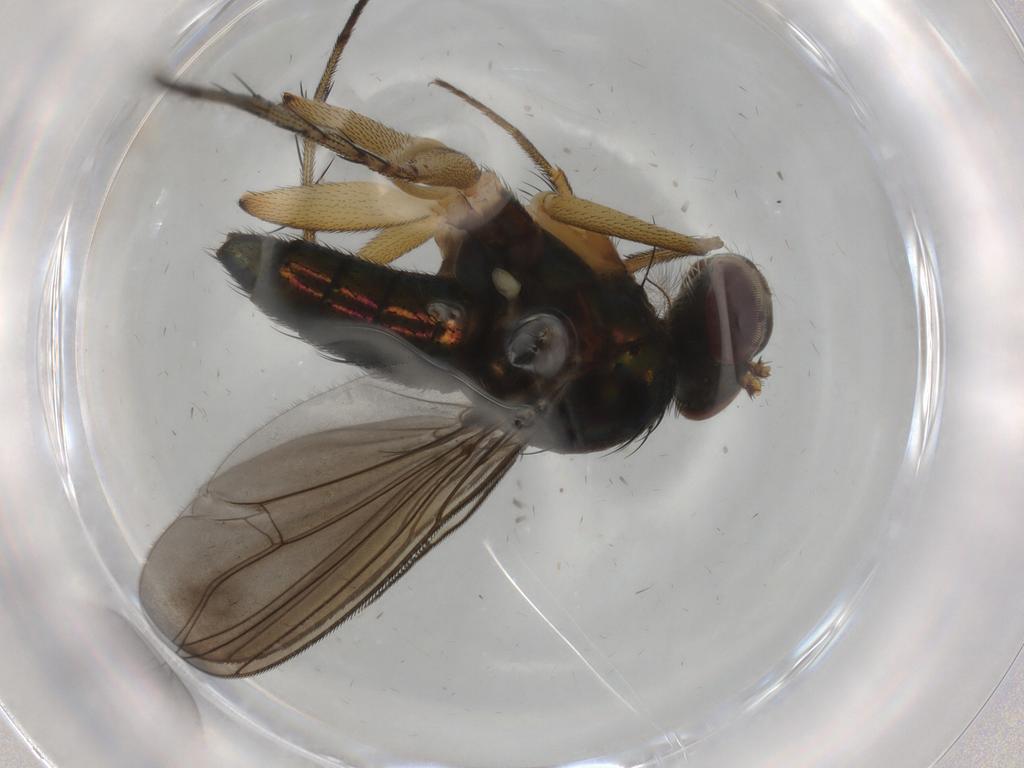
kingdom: Animalia
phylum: Arthropoda
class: Insecta
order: Diptera
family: Dolichopodidae
